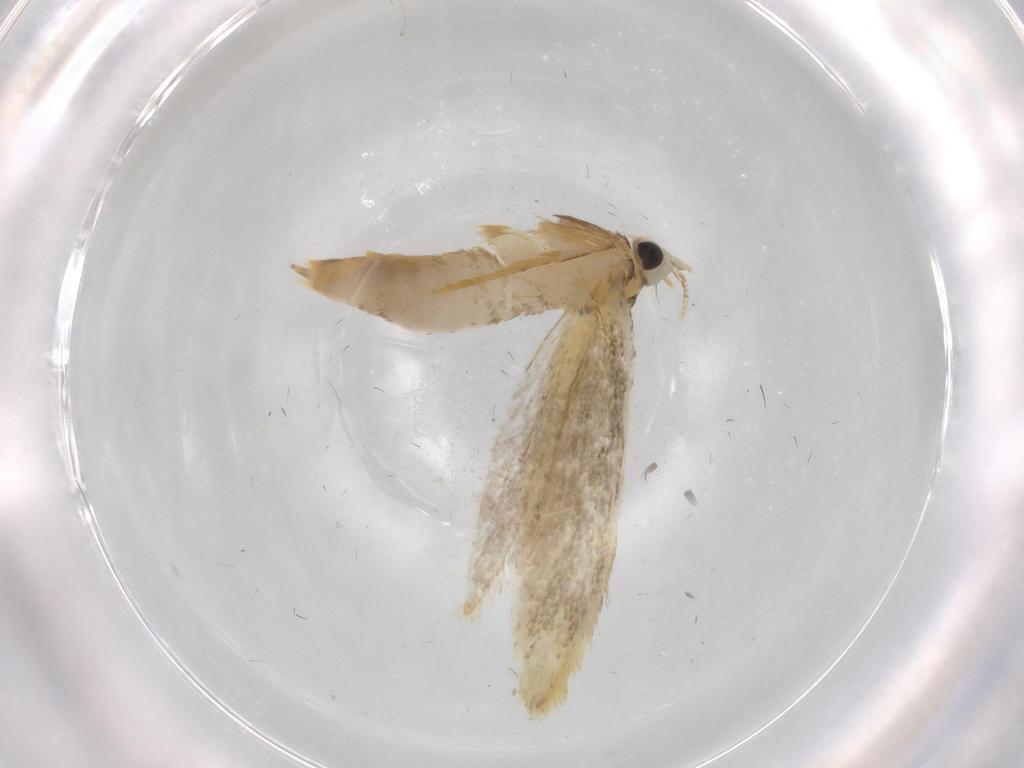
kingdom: Animalia
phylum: Arthropoda
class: Insecta
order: Lepidoptera
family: Tineidae
